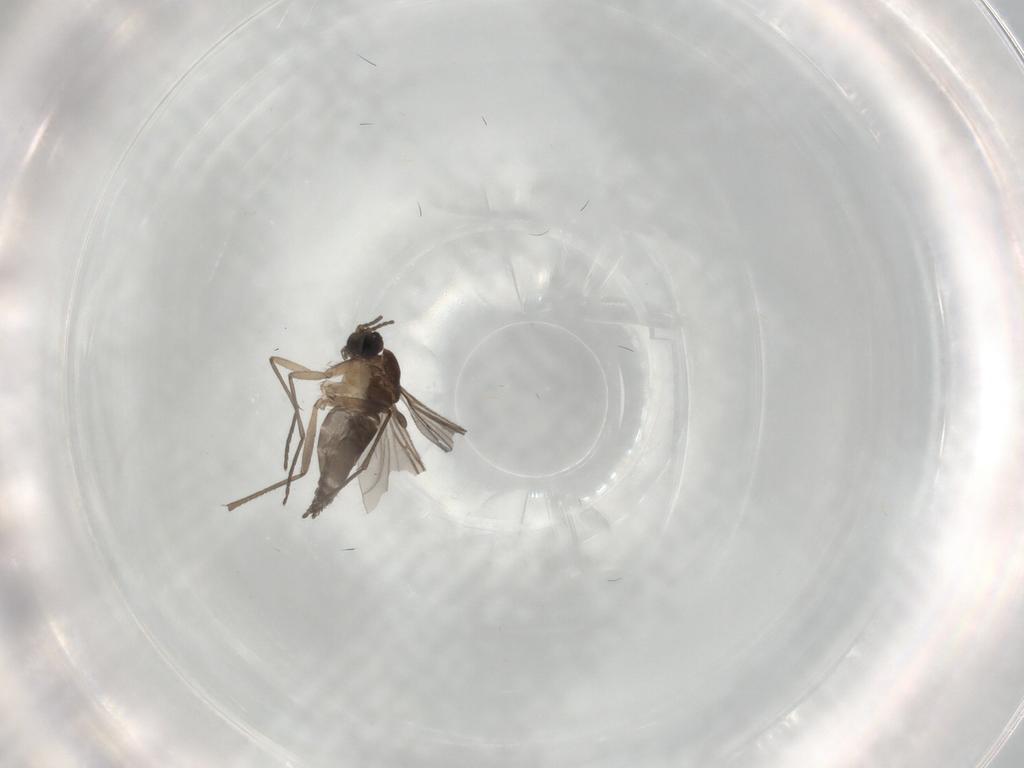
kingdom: Animalia
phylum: Arthropoda
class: Insecta
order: Diptera
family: Sciaridae
